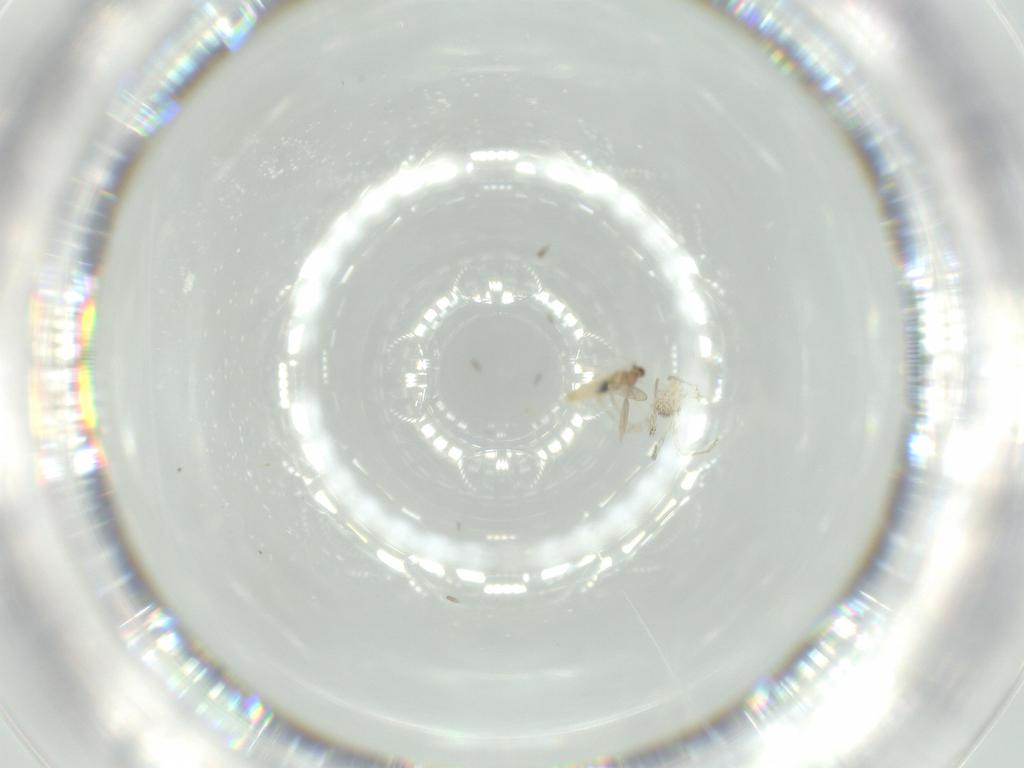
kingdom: Animalia
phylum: Arthropoda
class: Insecta
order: Diptera
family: Cecidomyiidae
